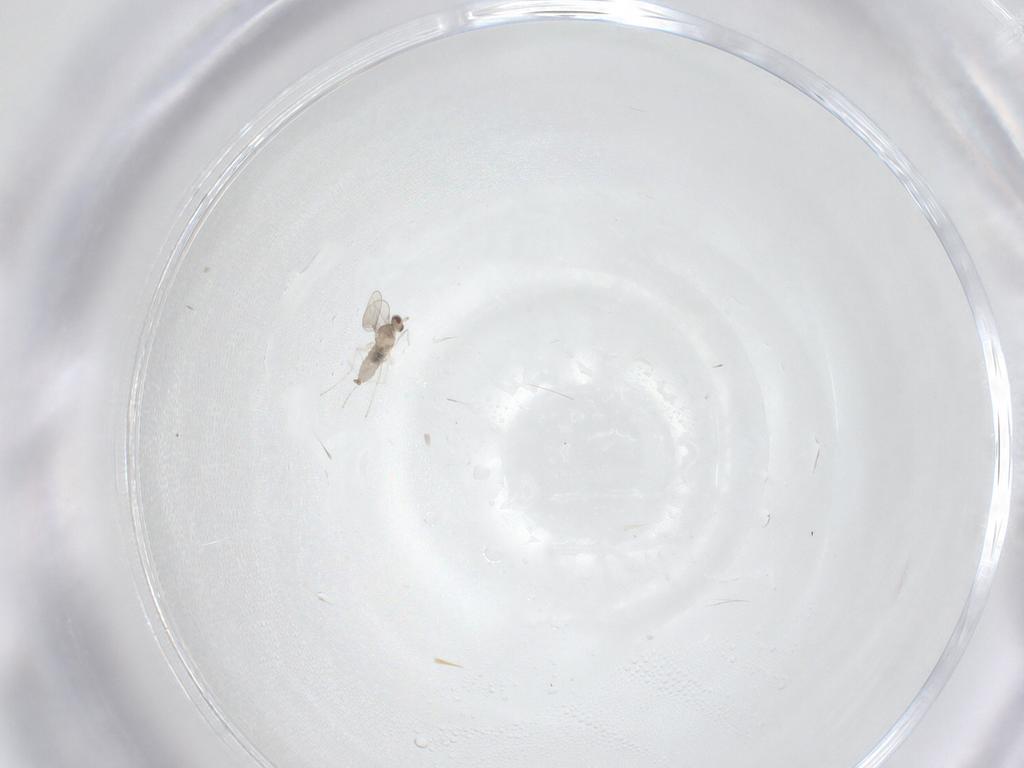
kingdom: Animalia
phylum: Arthropoda
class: Insecta
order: Diptera
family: Cecidomyiidae
